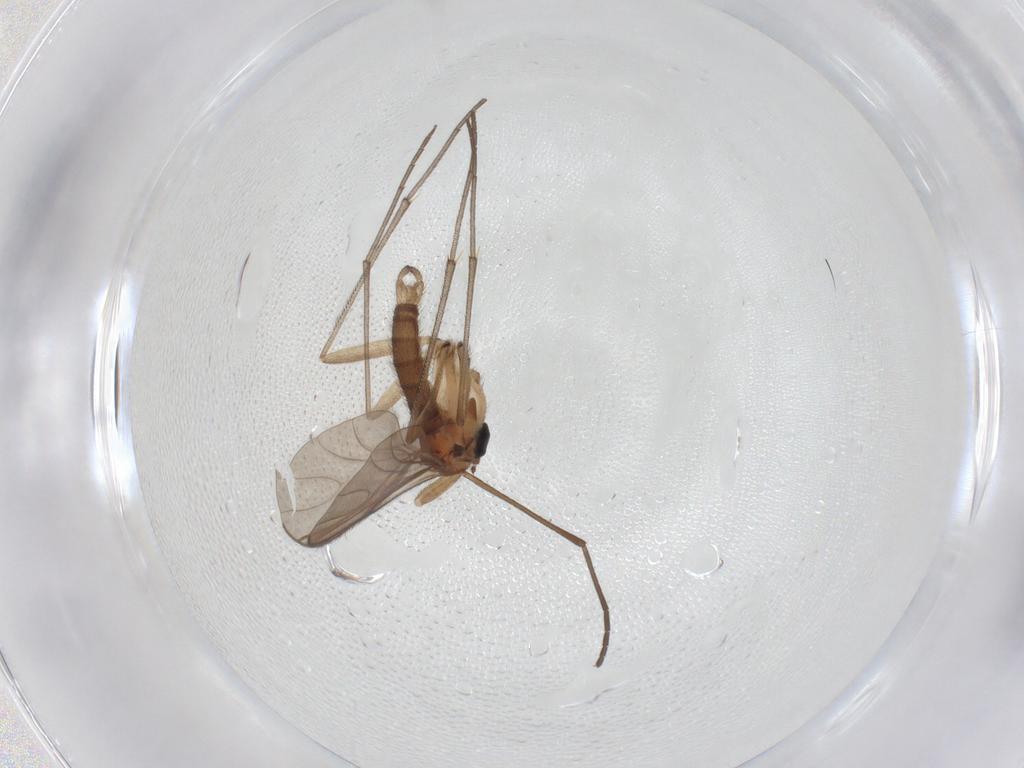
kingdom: Animalia
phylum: Arthropoda
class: Insecta
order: Diptera
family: Sciaridae
